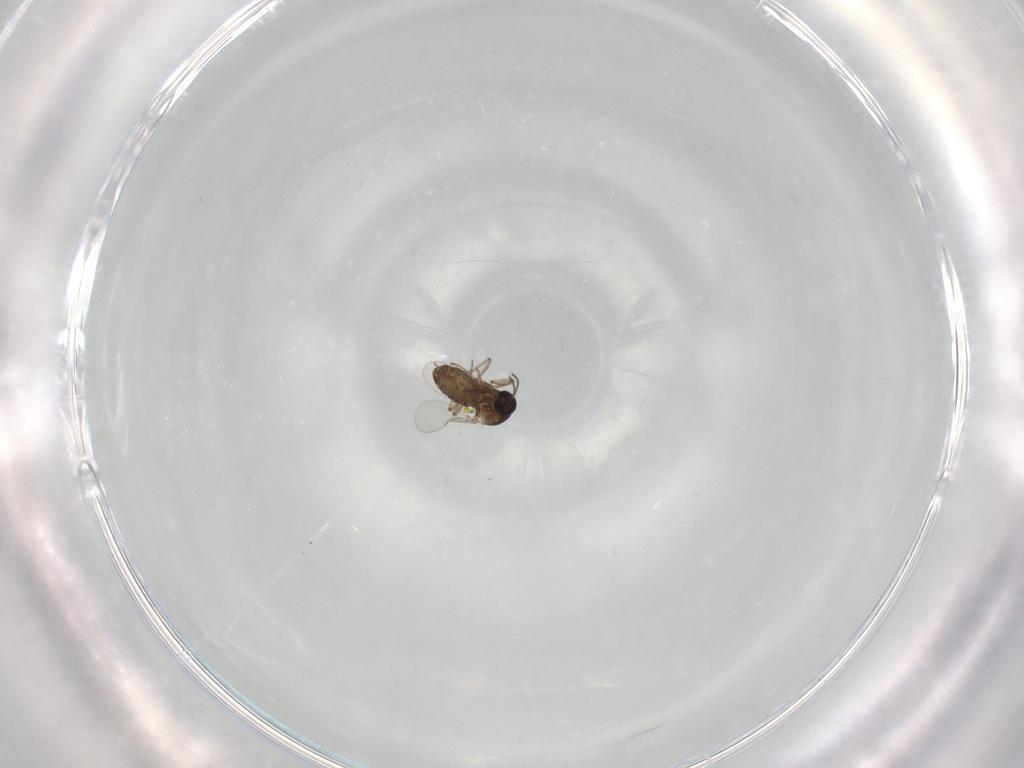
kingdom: Animalia
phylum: Arthropoda
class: Insecta
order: Diptera
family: Ceratopogonidae
